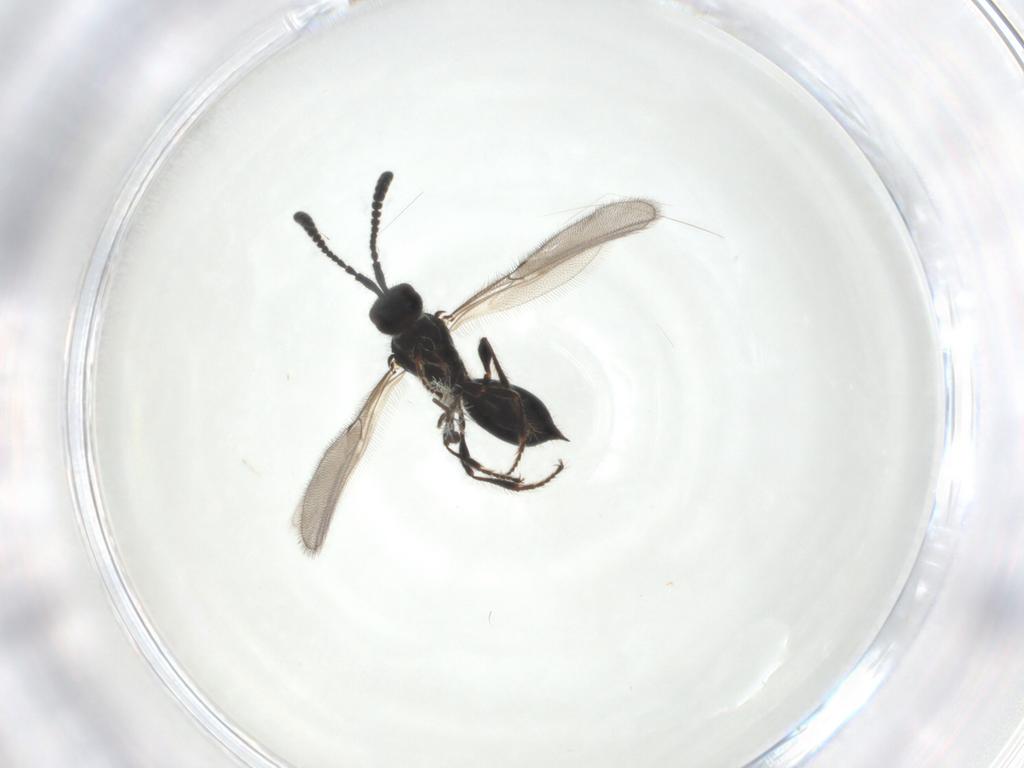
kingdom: Animalia
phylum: Arthropoda
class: Insecta
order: Hymenoptera
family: Diapriidae
